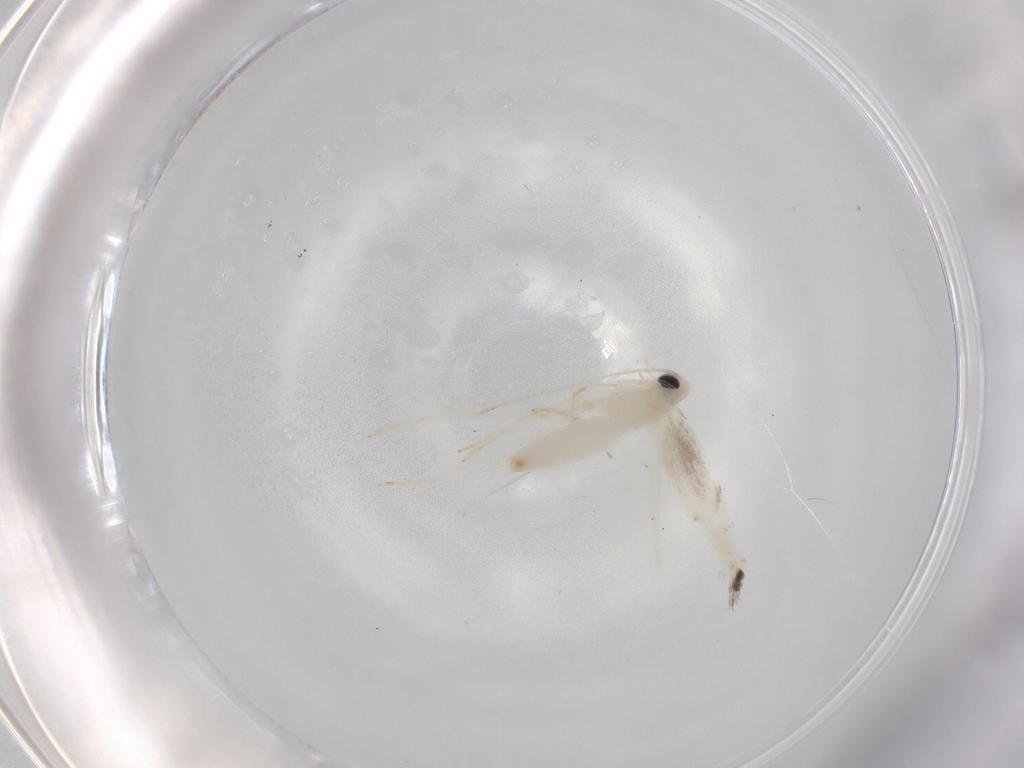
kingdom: Animalia
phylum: Arthropoda
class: Insecta
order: Lepidoptera
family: Gracillariidae
